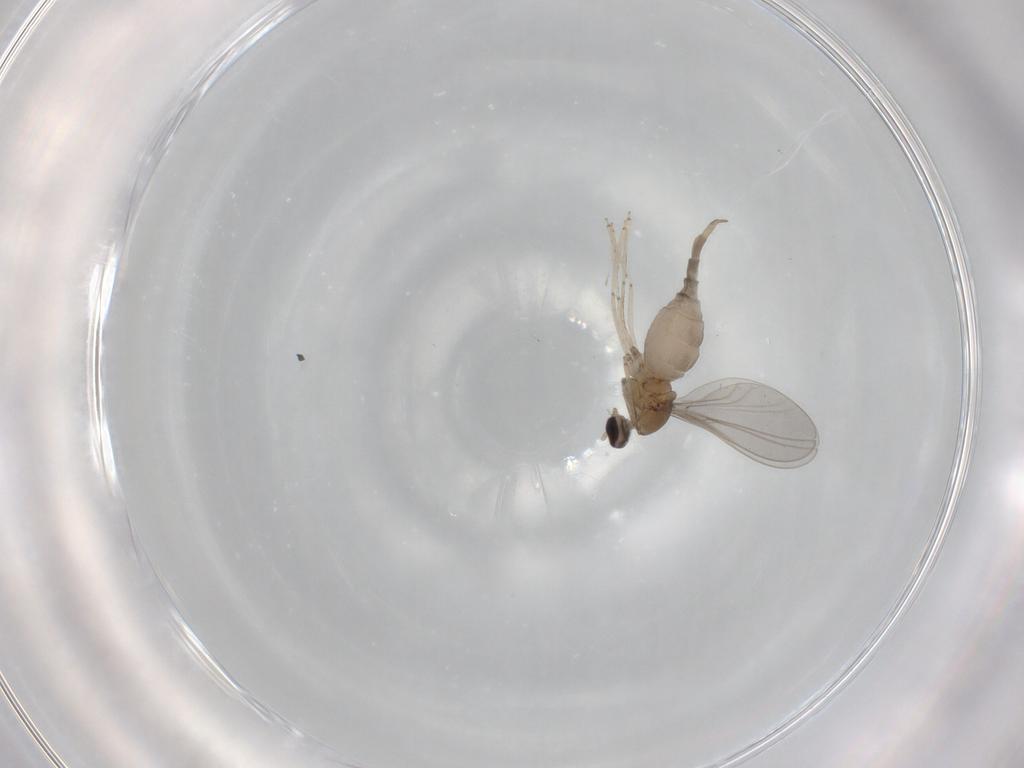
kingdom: Animalia
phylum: Arthropoda
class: Insecta
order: Diptera
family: Cecidomyiidae
